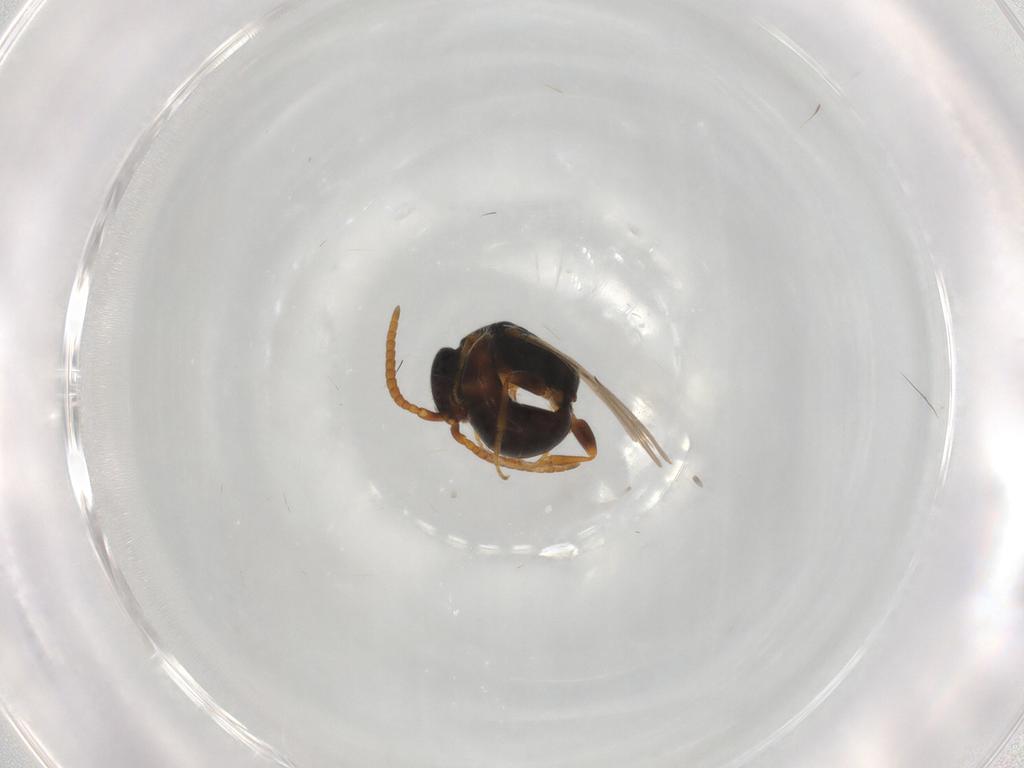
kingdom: Animalia
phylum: Arthropoda
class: Insecta
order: Hymenoptera
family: Bethylidae
